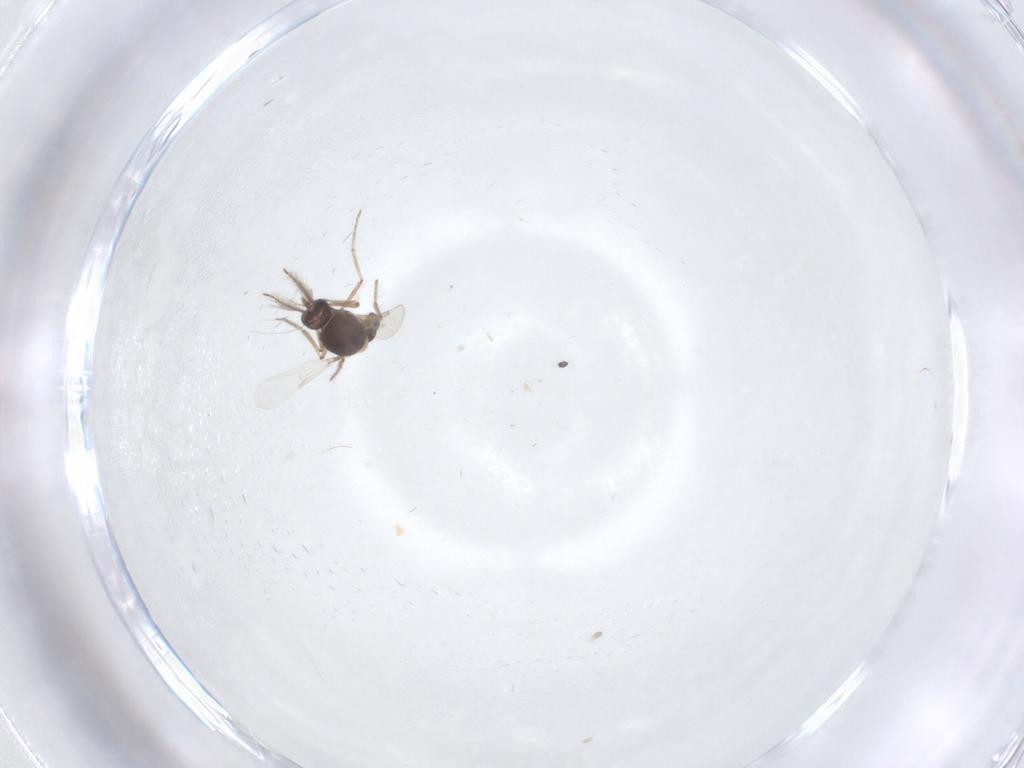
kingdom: Animalia
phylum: Arthropoda
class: Insecta
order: Diptera
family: Ceratopogonidae
